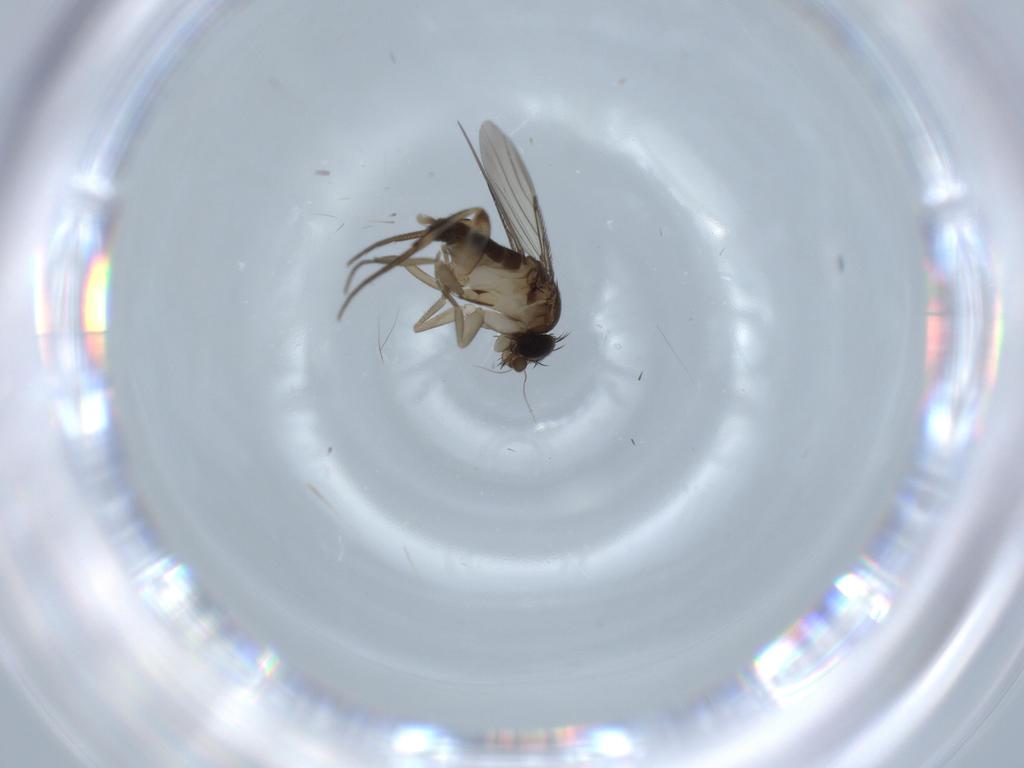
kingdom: Animalia
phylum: Arthropoda
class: Insecta
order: Diptera
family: Phoridae
